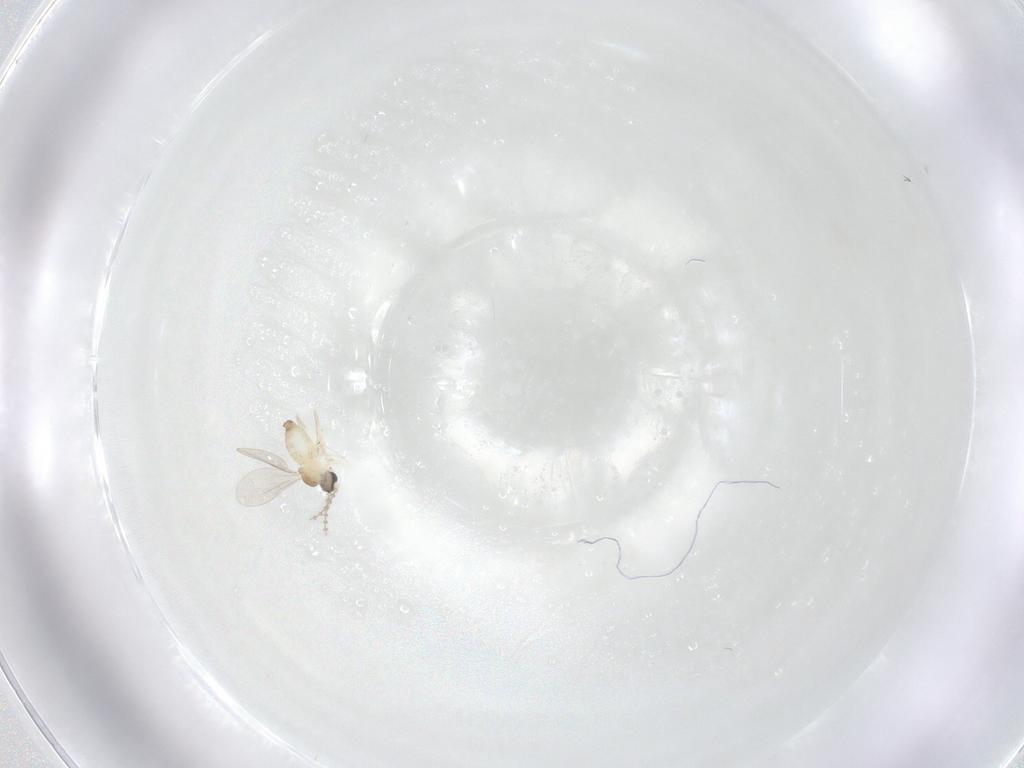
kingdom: Animalia
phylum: Arthropoda
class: Insecta
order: Diptera
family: Cecidomyiidae
